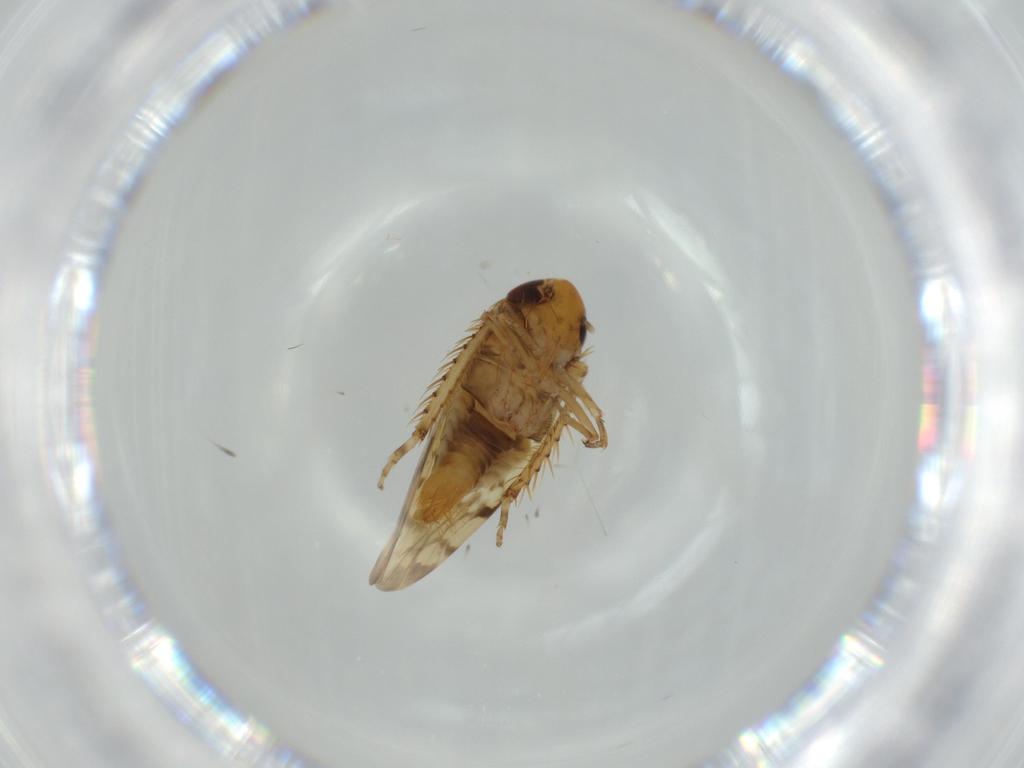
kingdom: Animalia
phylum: Arthropoda
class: Insecta
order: Hemiptera
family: Cicadellidae
